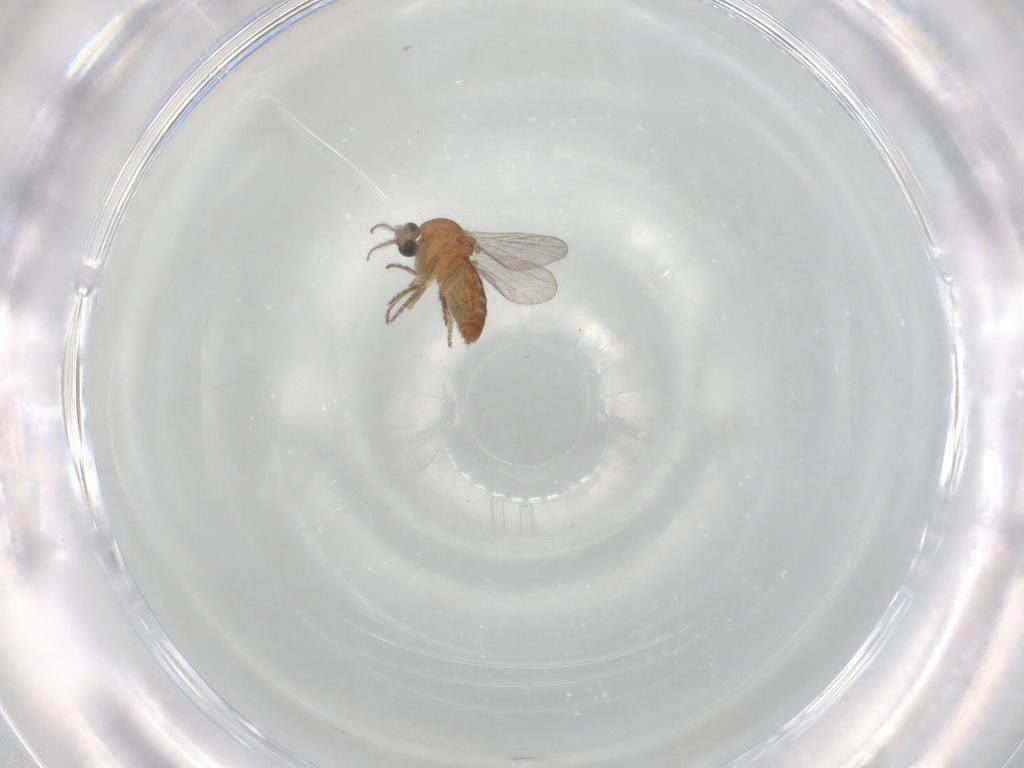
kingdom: Animalia
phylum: Arthropoda
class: Insecta
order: Diptera
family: Ceratopogonidae
